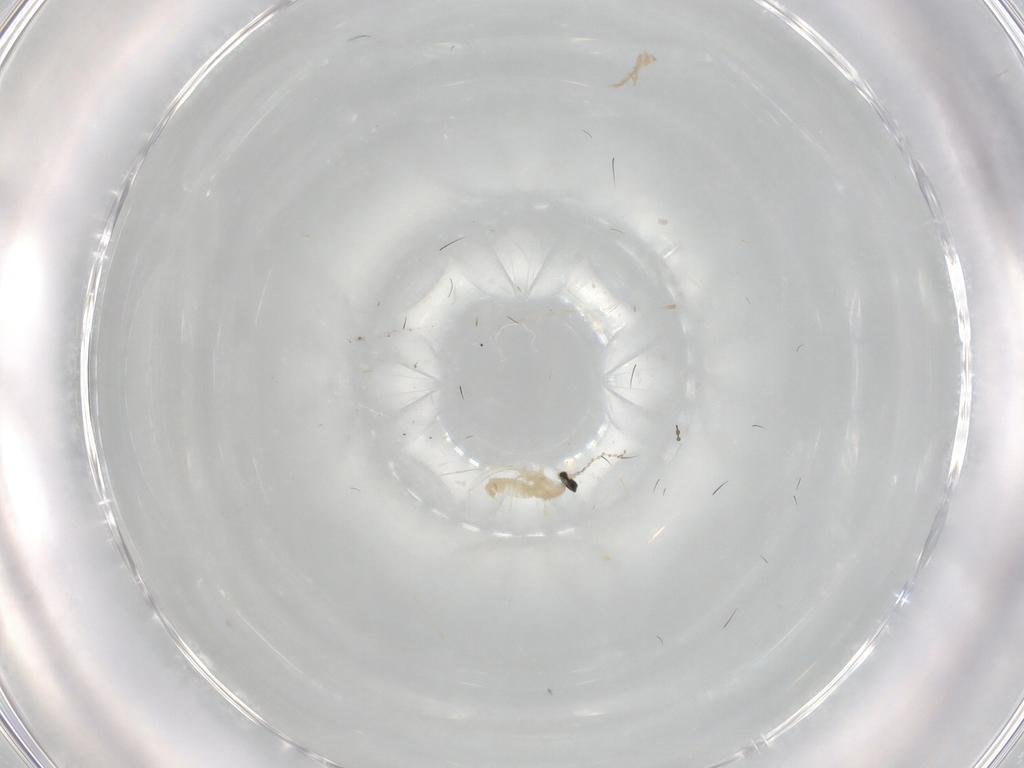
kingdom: Animalia
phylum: Arthropoda
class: Insecta
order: Diptera
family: Cecidomyiidae
